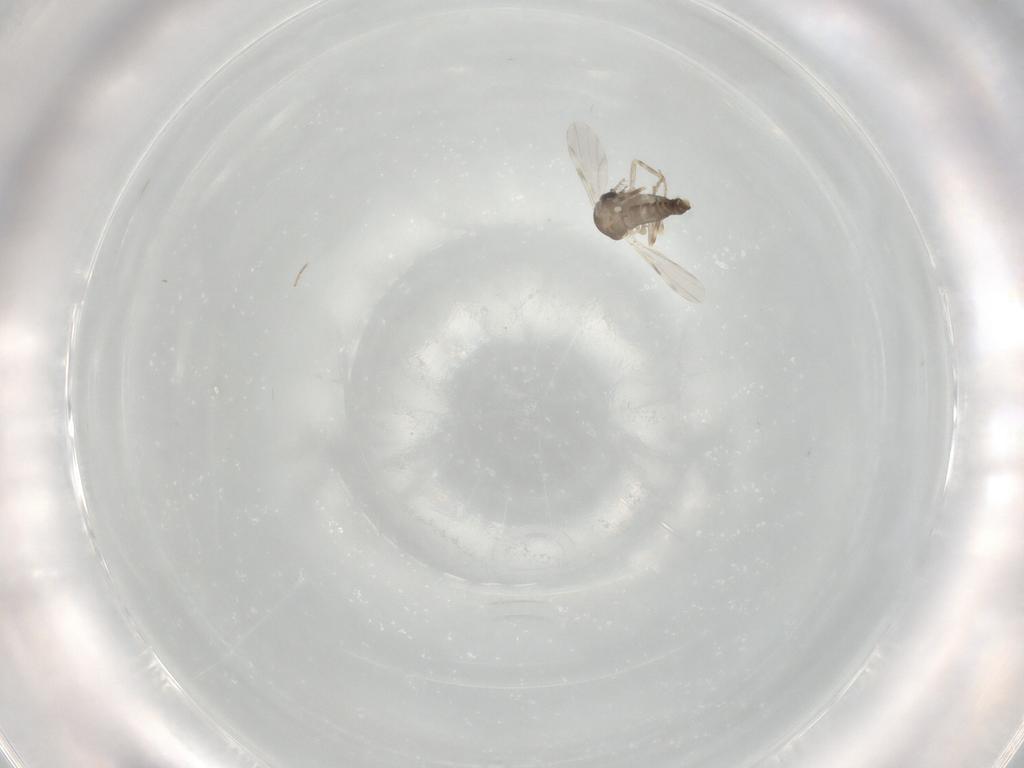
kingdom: Animalia
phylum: Arthropoda
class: Insecta
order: Diptera
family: Ceratopogonidae
